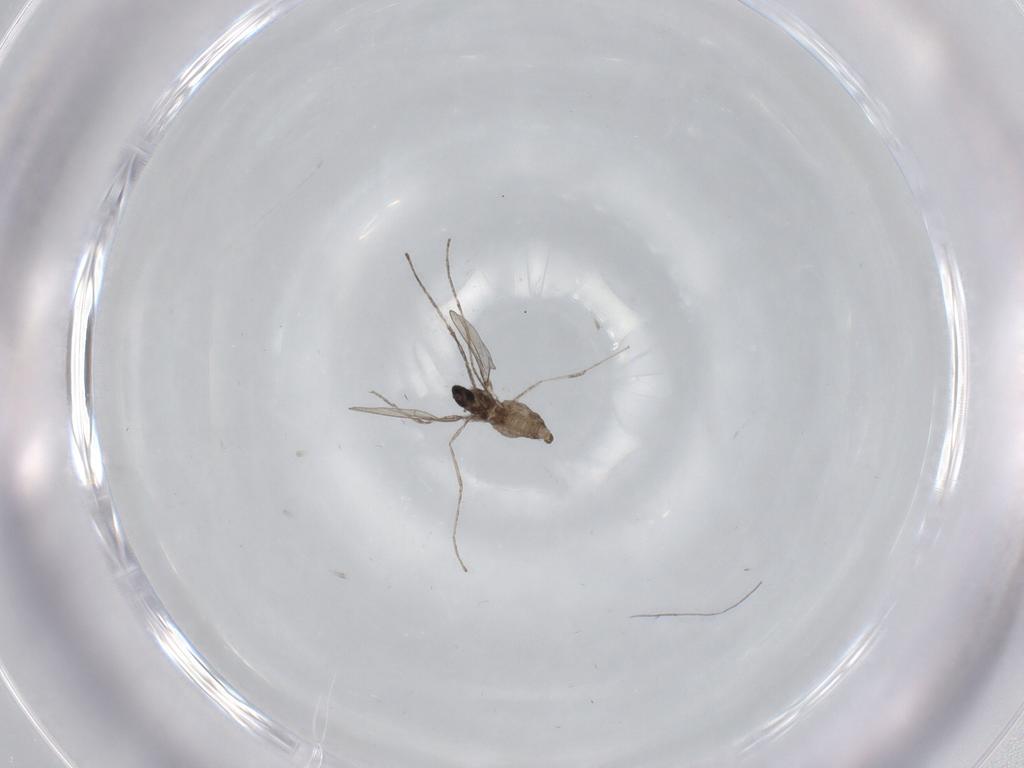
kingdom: Animalia
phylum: Arthropoda
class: Insecta
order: Diptera
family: Cecidomyiidae
